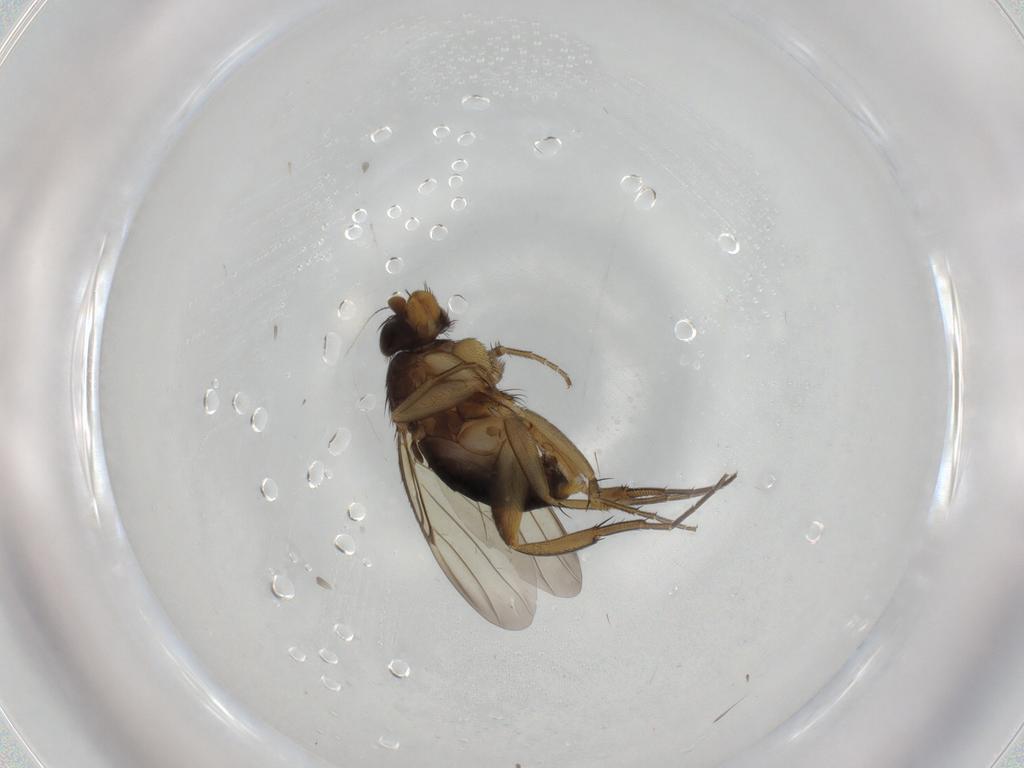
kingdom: Animalia
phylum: Arthropoda
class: Insecta
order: Diptera
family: Phoridae
